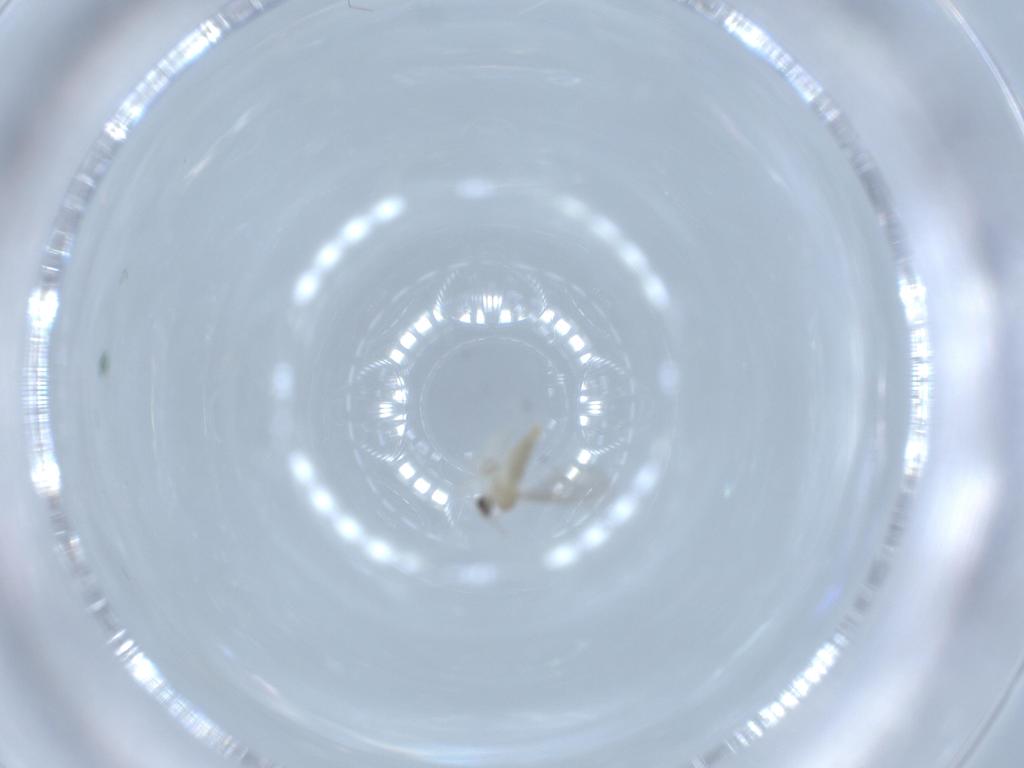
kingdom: Animalia
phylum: Arthropoda
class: Insecta
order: Diptera
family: Cecidomyiidae
